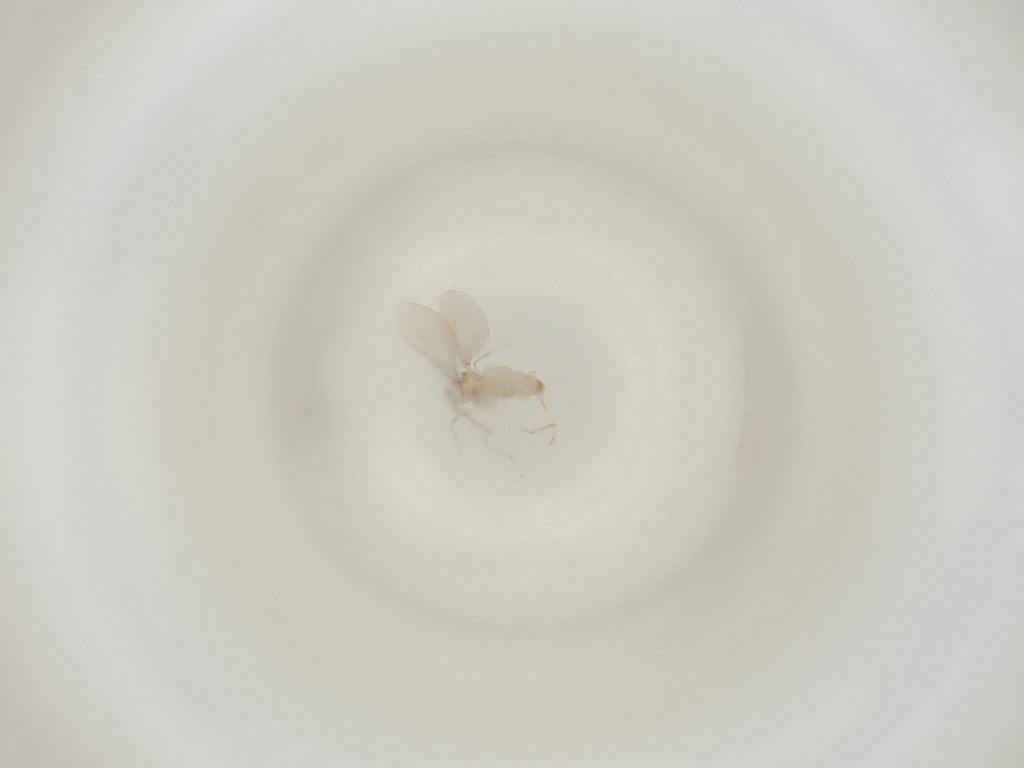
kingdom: Animalia
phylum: Arthropoda
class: Insecta
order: Diptera
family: Cecidomyiidae
